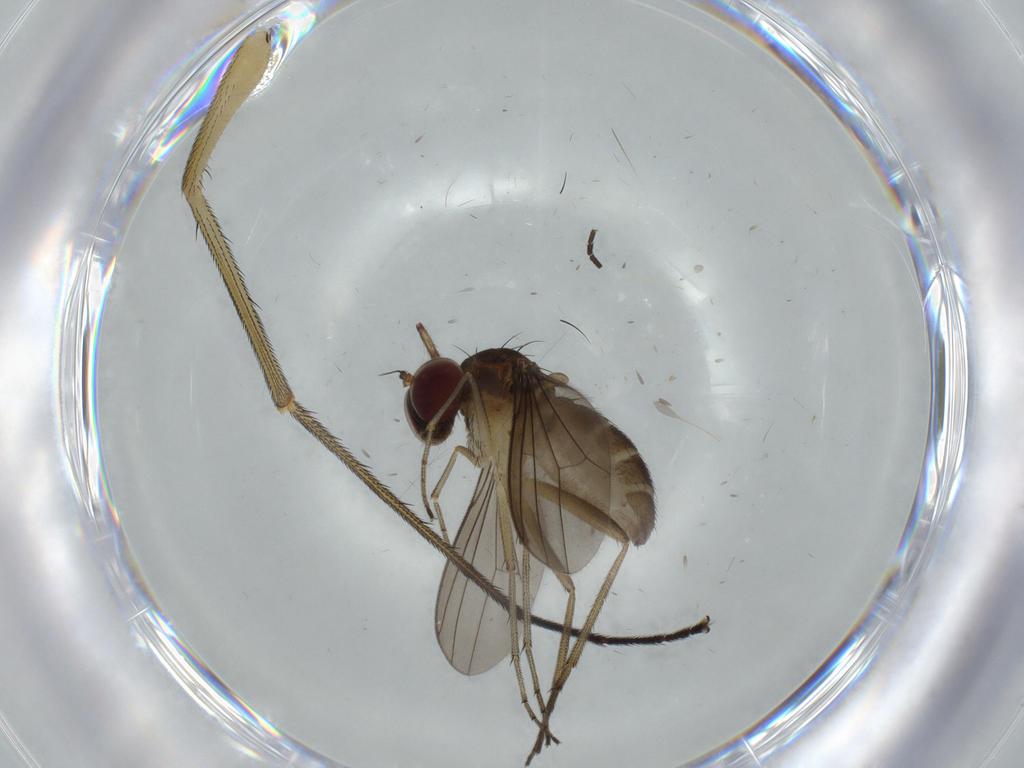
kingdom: Animalia
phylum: Arthropoda
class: Insecta
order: Diptera
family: Dolichopodidae
